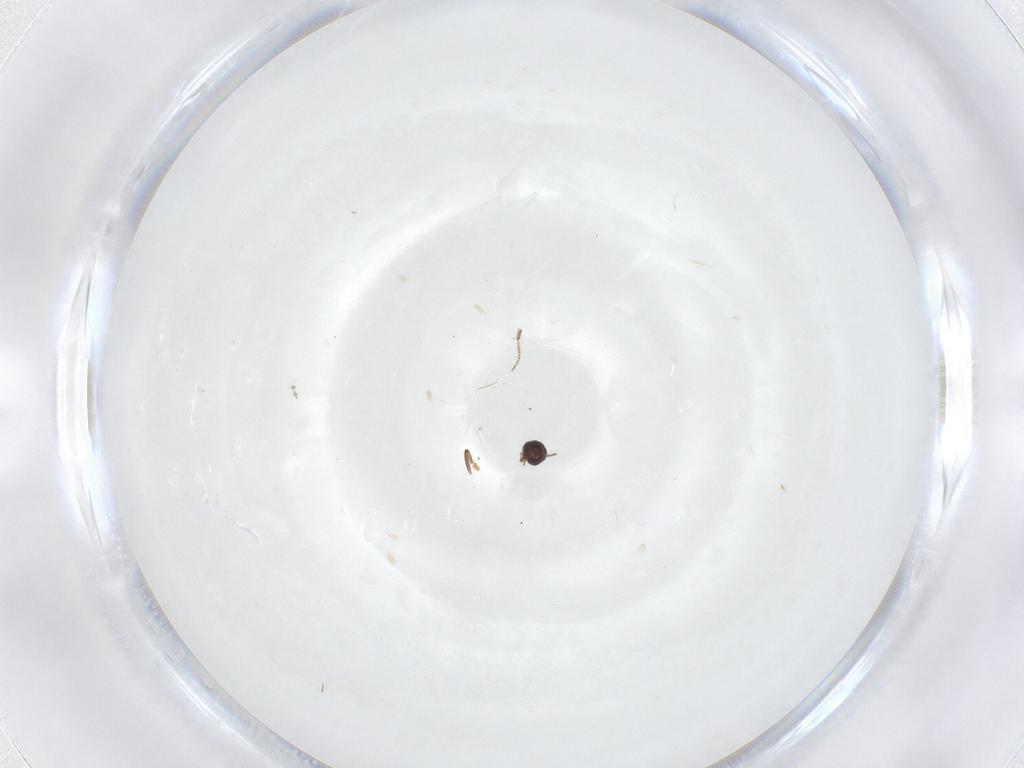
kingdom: Animalia
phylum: Arthropoda
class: Insecta
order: Diptera
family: Ceratopogonidae
